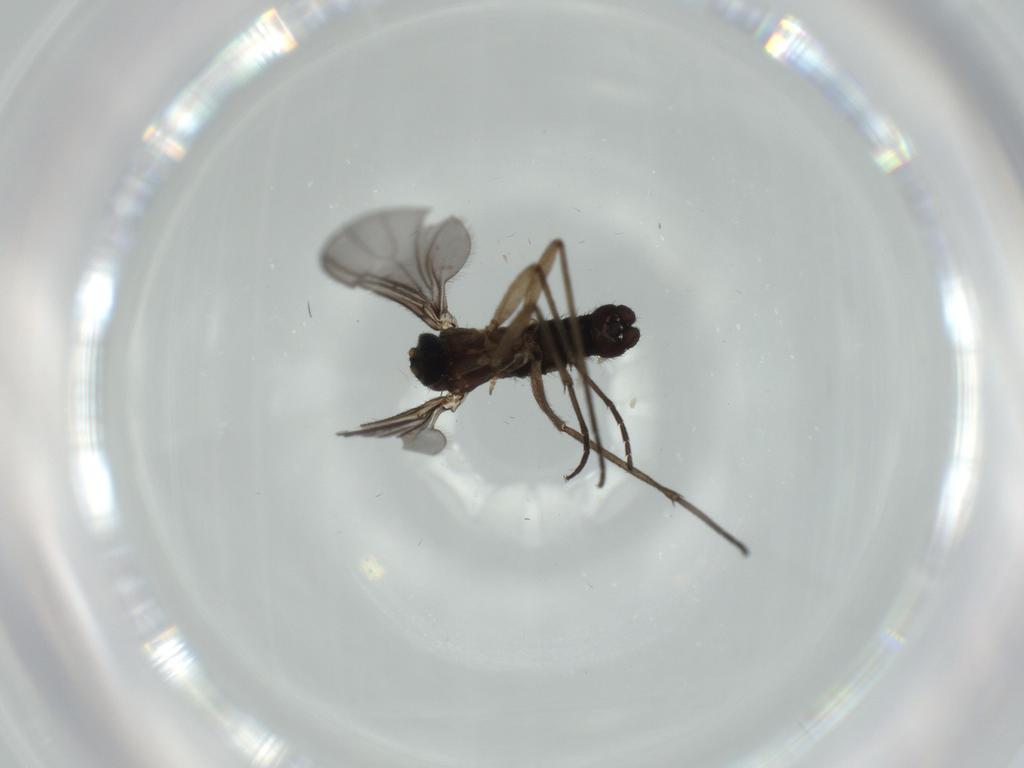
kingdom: Animalia
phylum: Arthropoda
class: Insecta
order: Diptera
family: Sciaridae
